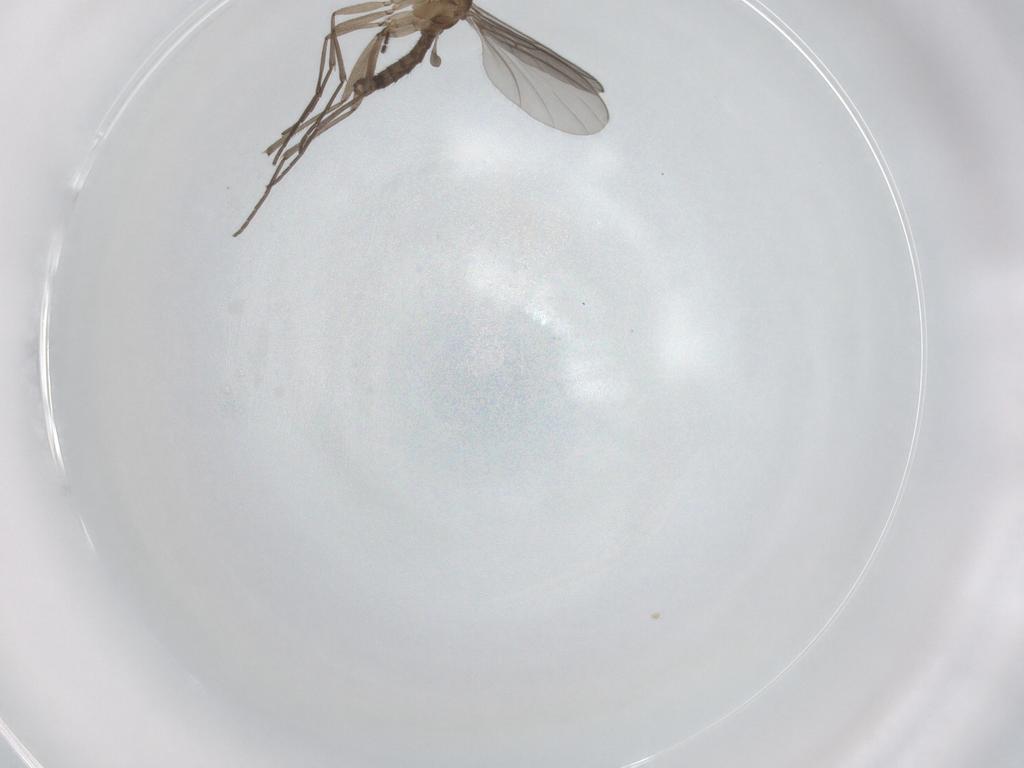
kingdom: Animalia
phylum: Arthropoda
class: Insecta
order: Diptera
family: Sciaridae
